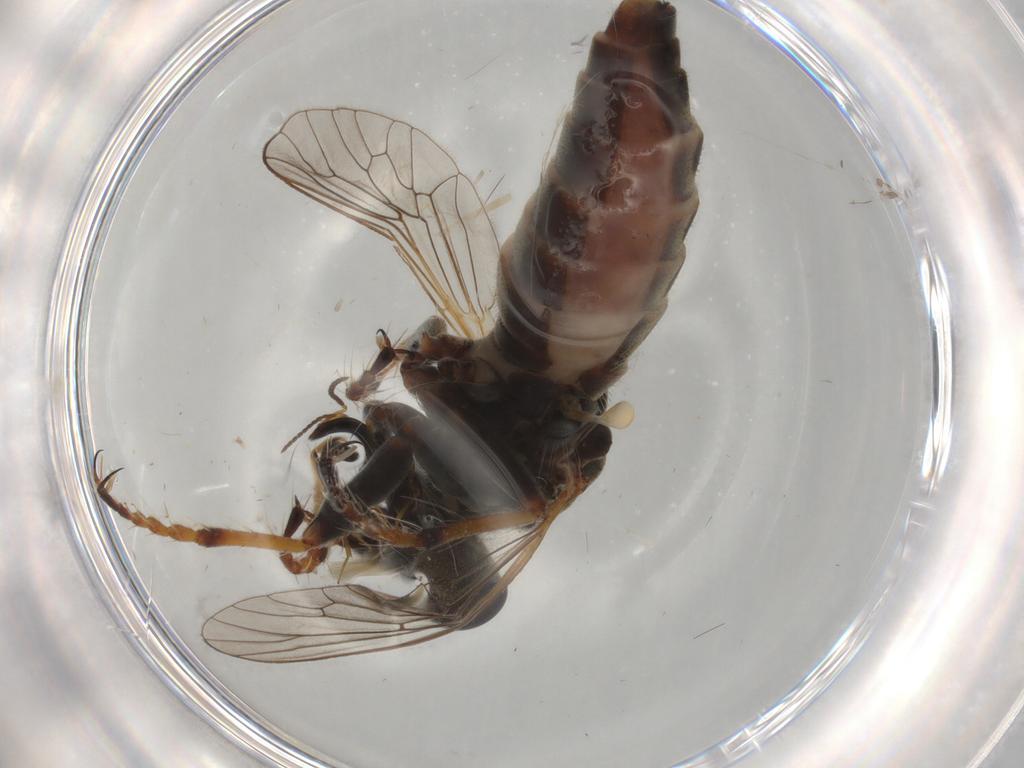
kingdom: Animalia
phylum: Arthropoda
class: Insecta
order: Diptera
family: Asilidae
